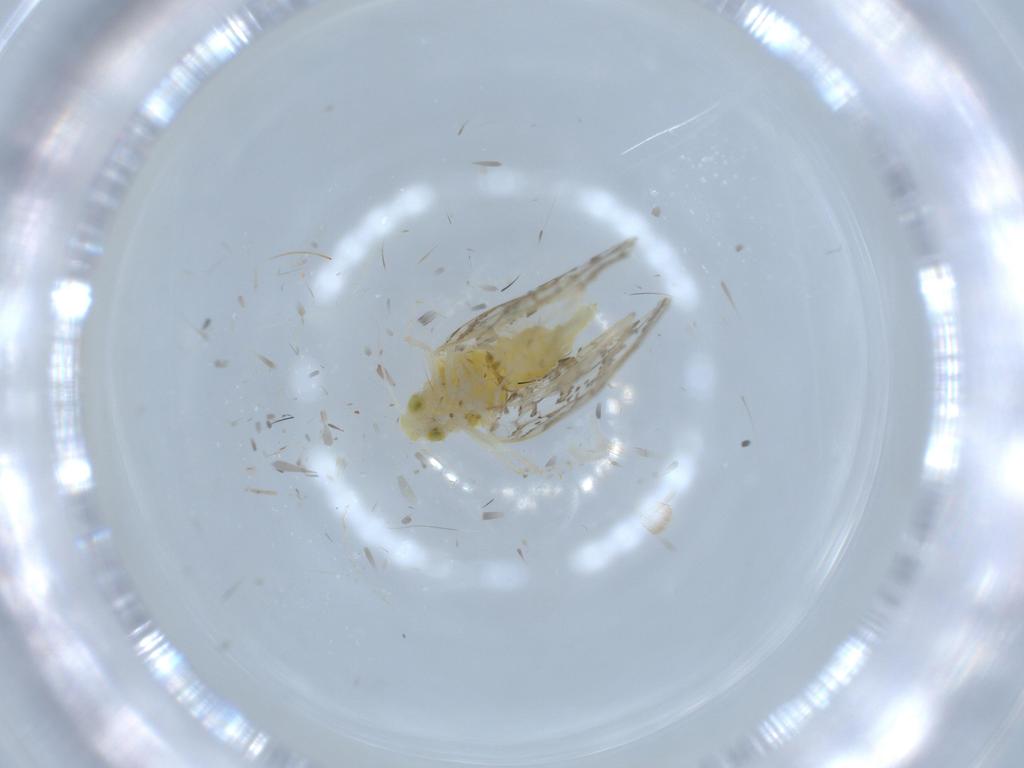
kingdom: Animalia
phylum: Arthropoda
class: Insecta
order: Hemiptera
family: Aleyrodidae
